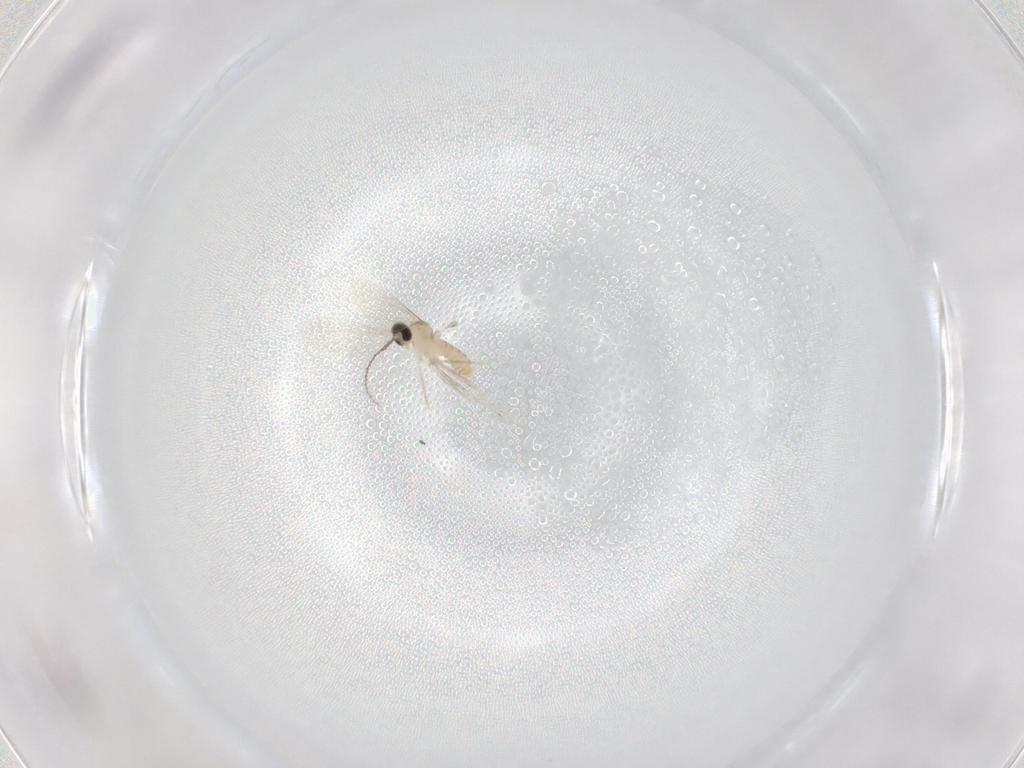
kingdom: Animalia
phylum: Arthropoda
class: Insecta
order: Diptera
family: Cecidomyiidae
